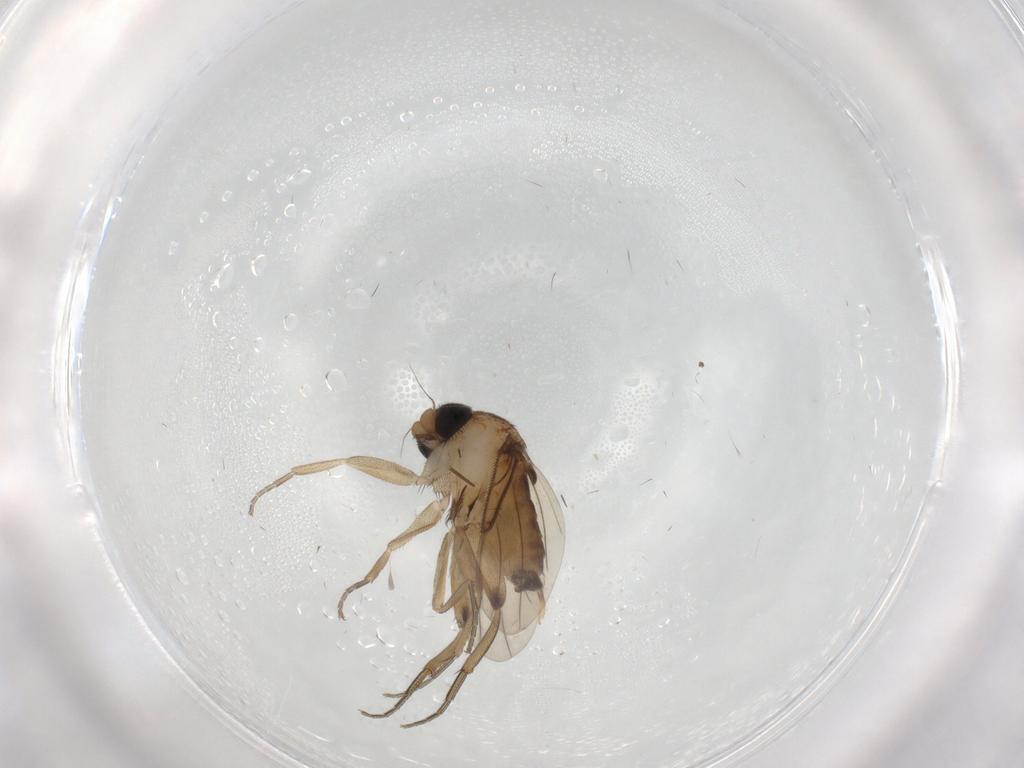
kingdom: Animalia
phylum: Arthropoda
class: Insecta
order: Diptera
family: Phoridae
